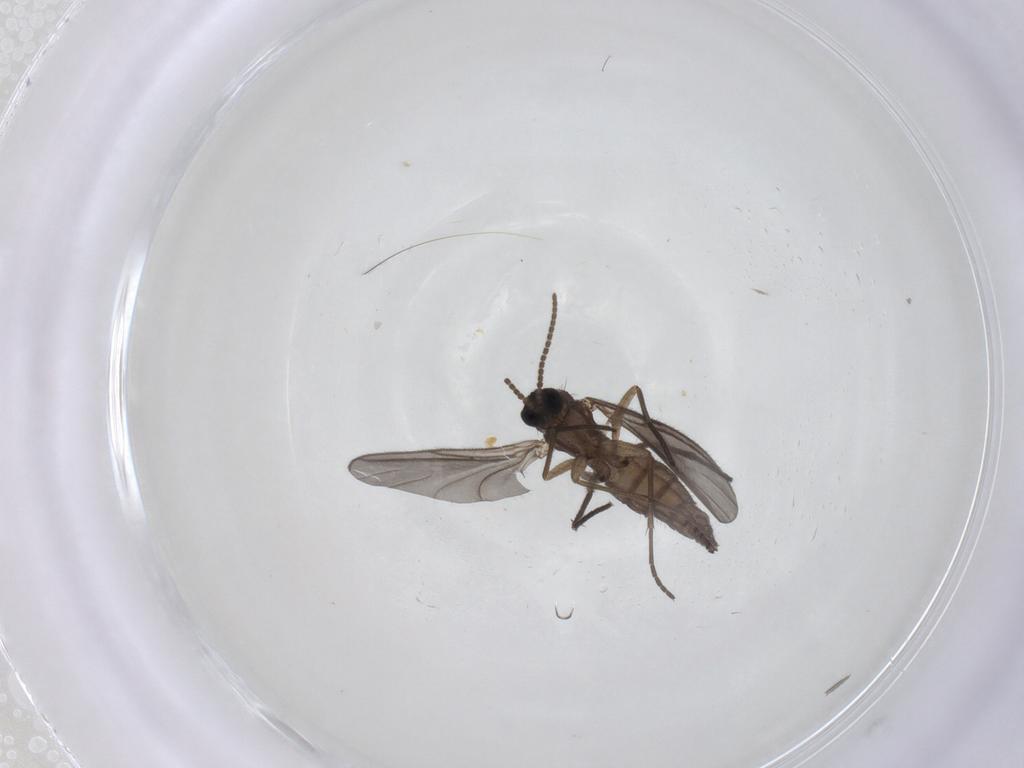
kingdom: Animalia
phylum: Arthropoda
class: Insecta
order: Diptera
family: Sciaridae
